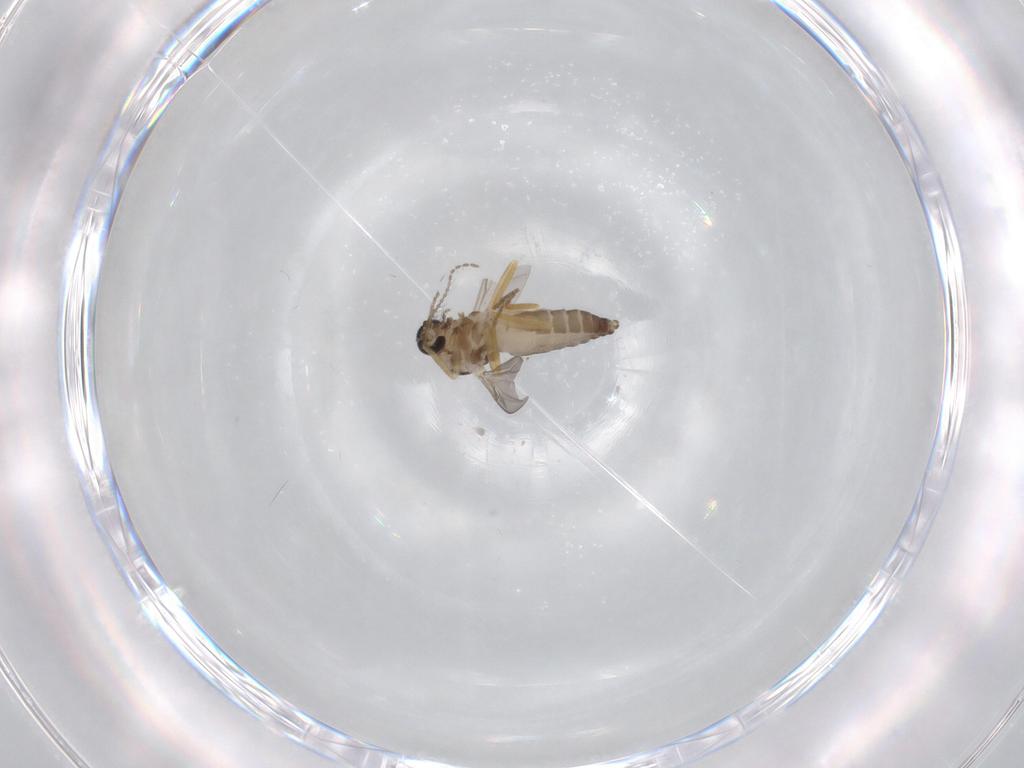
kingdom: Animalia
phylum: Arthropoda
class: Insecta
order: Diptera
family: Ceratopogonidae
